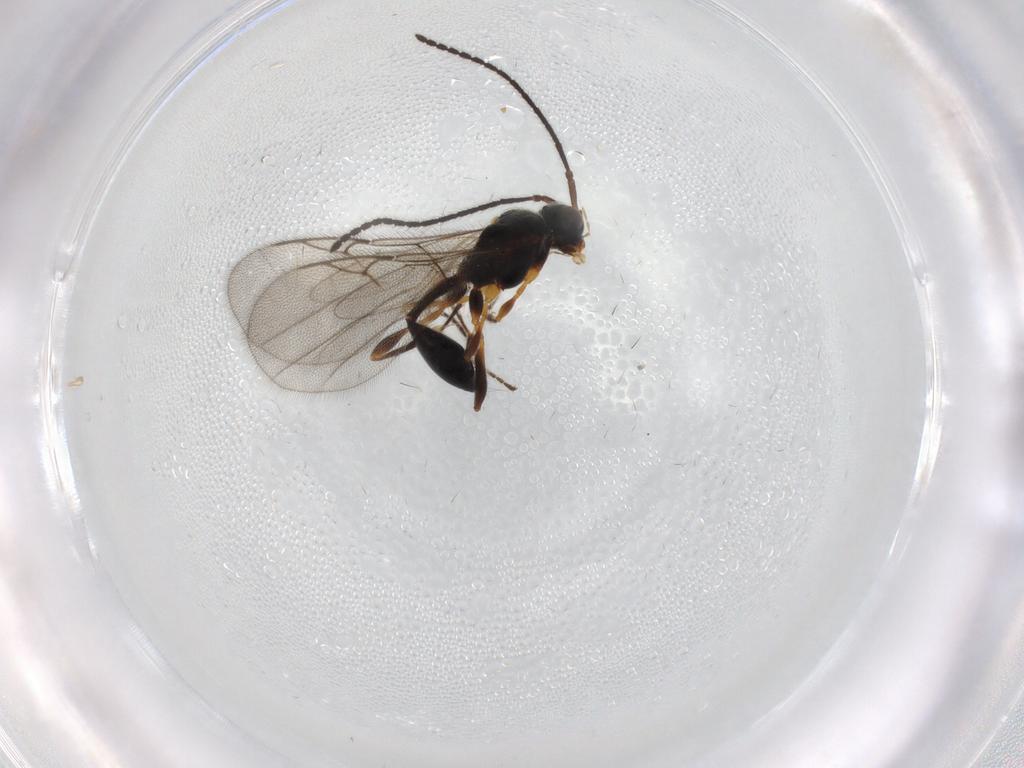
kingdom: Animalia
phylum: Arthropoda
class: Insecta
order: Hymenoptera
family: Diapriidae
